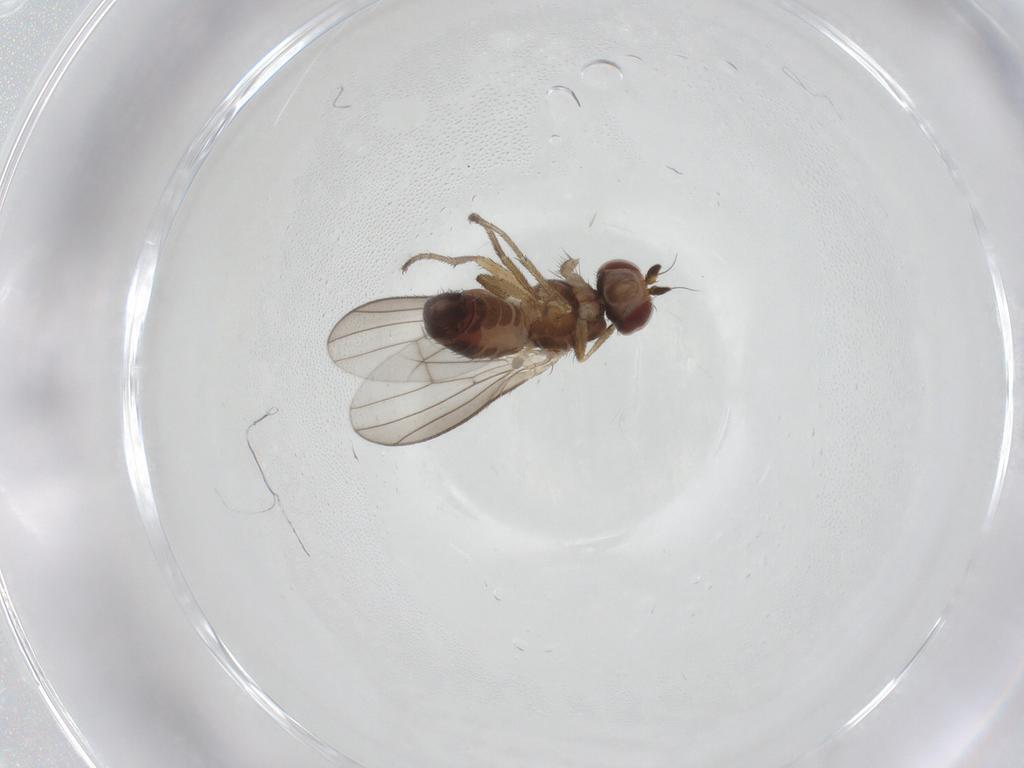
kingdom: Animalia
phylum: Arthropoda
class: Insecta
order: Diptera
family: Heleomyzidae
